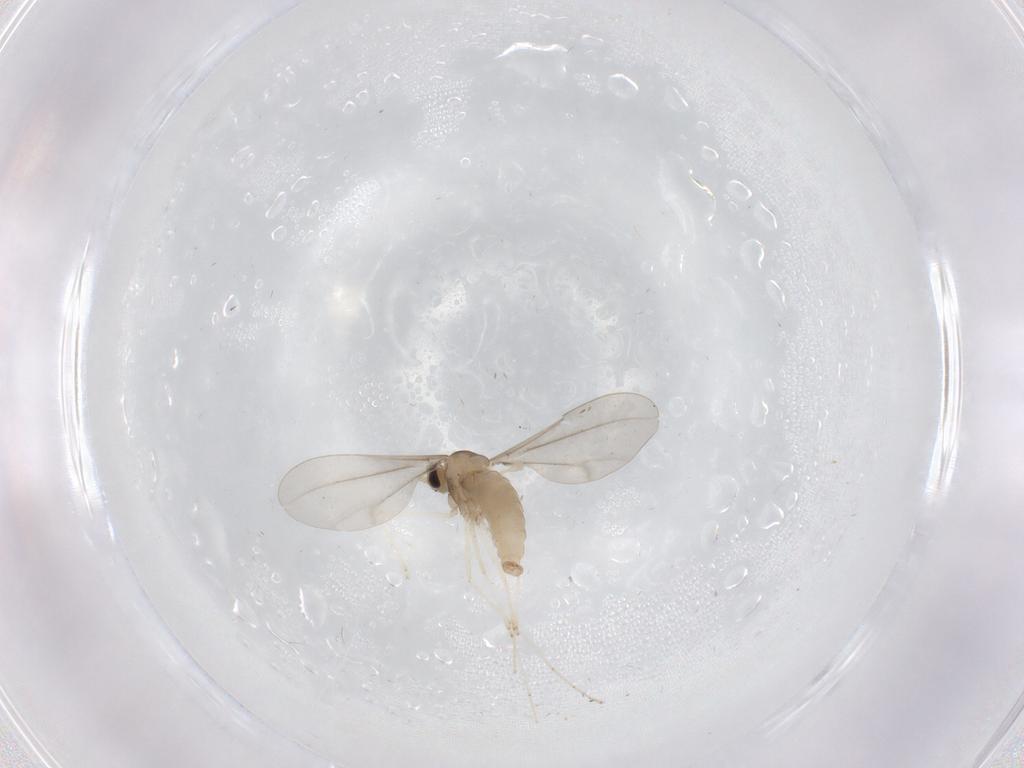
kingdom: Animalia
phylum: Arthropoda
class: Insecta
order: Diptera
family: Cecidomyiidae
